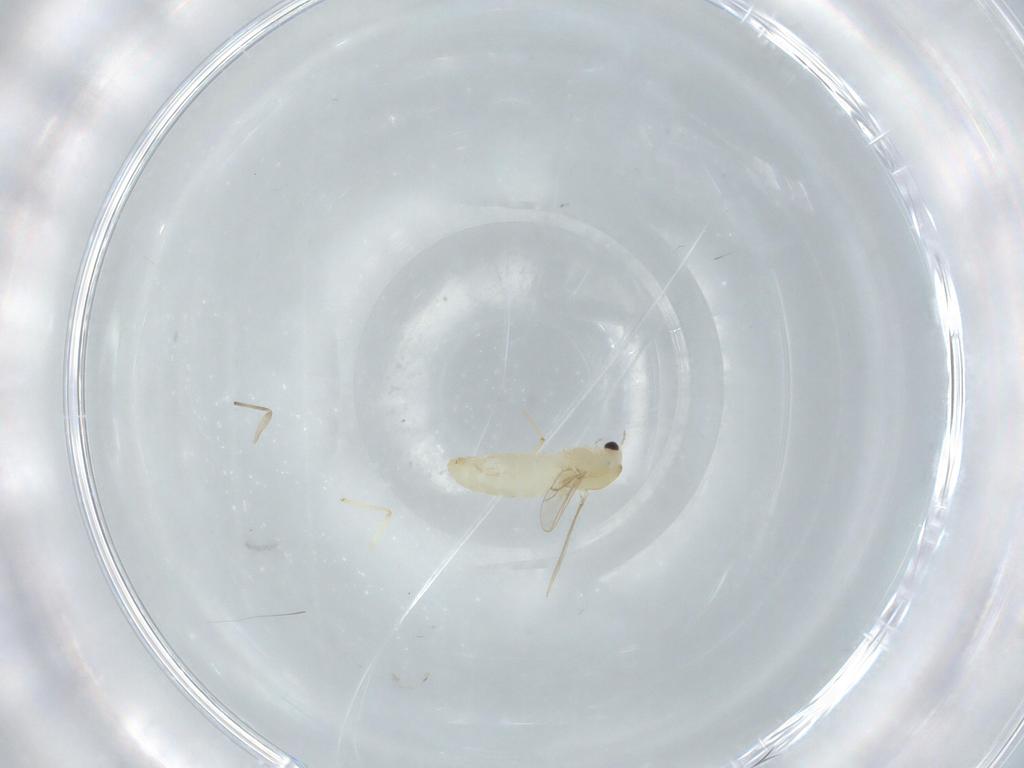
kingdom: Animalia
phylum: Arthropoda
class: Insecta
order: Diptera
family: Chironomidae
